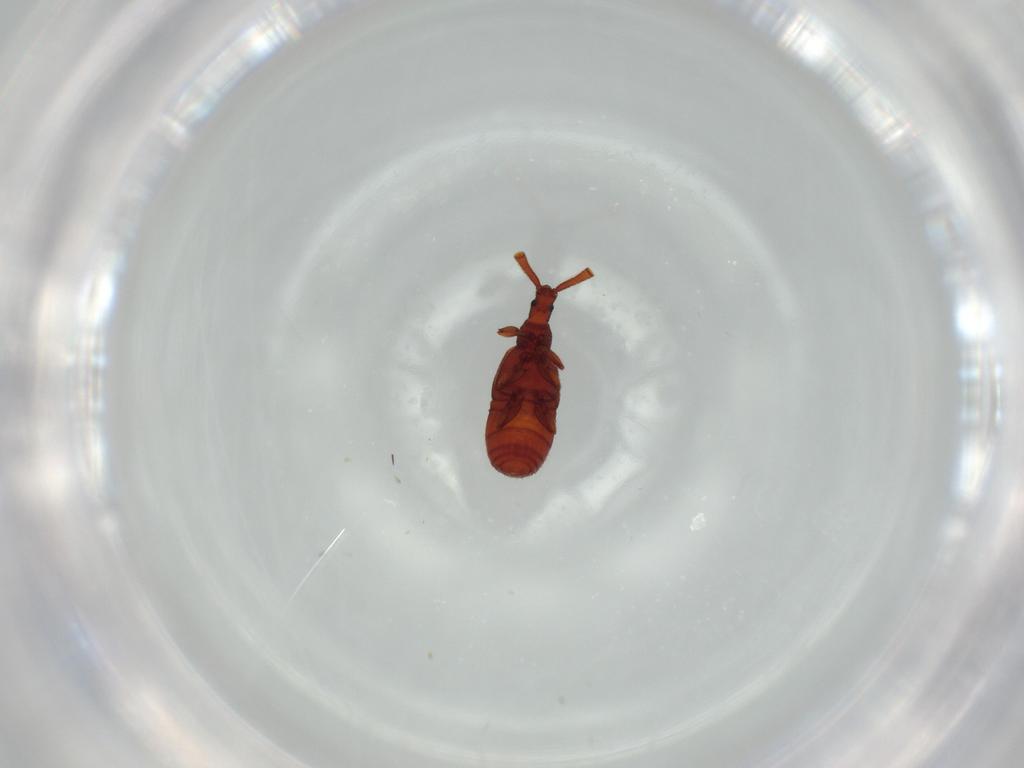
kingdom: Animalia
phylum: Arthropoda
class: Insecta
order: Coleoptera
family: Staphylinidae
